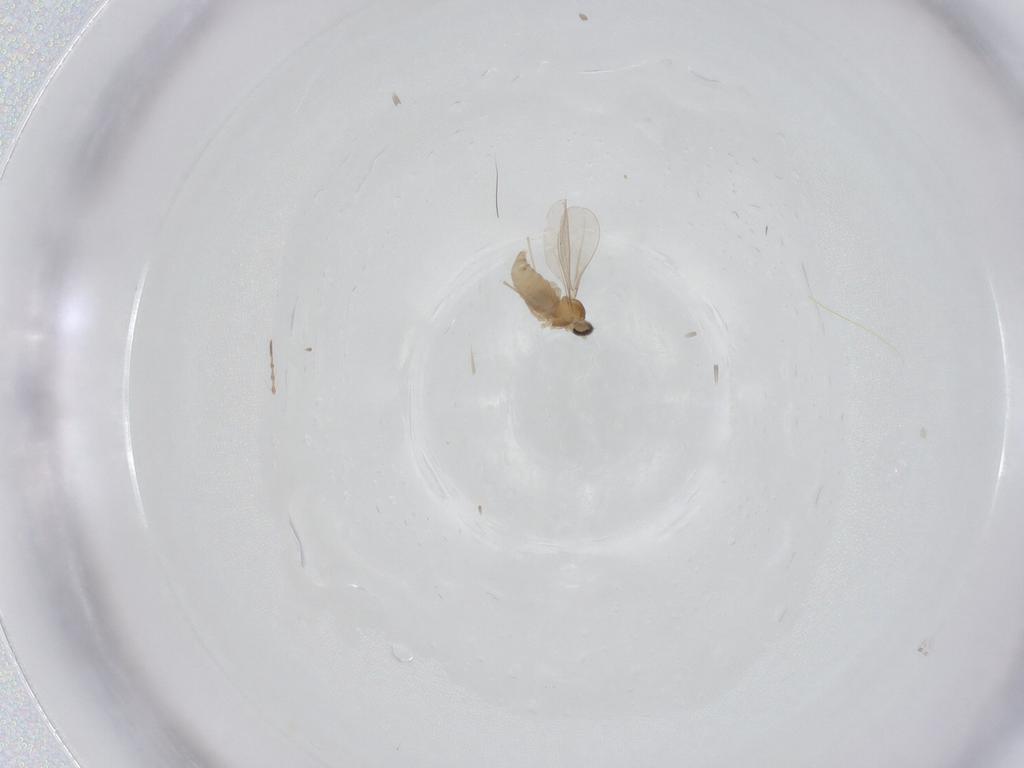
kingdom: Animalia
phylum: Arthropoda
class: Insecta
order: Diptera
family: Chironomidae
